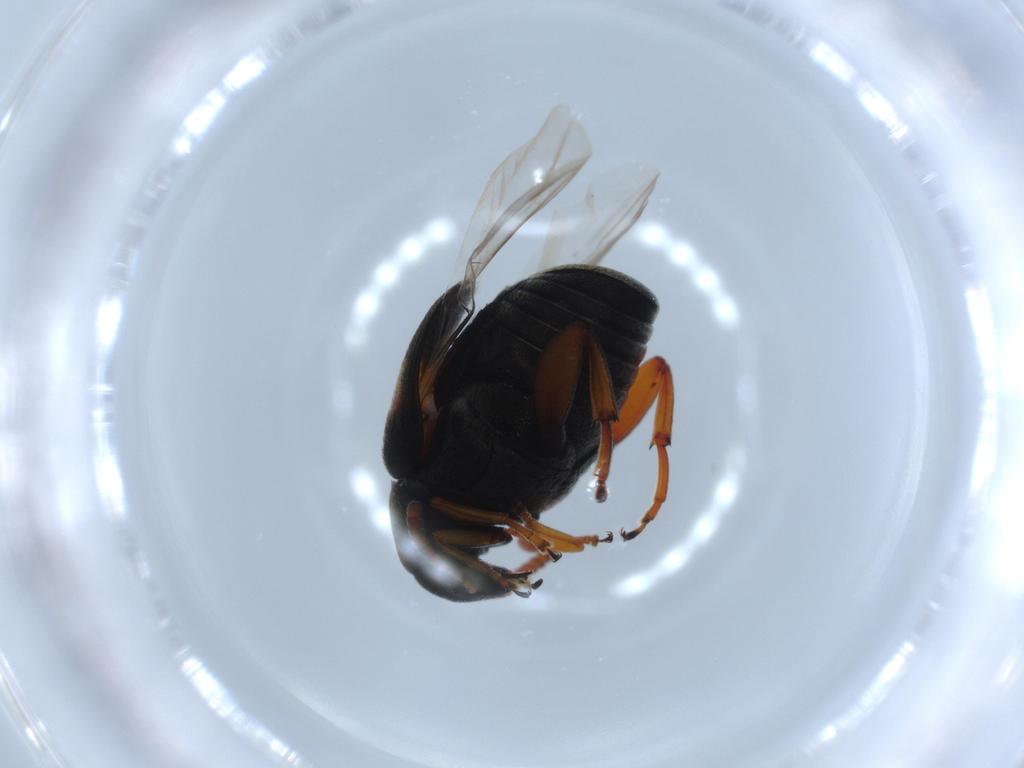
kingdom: Animalia
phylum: Arthropoda
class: Insecta
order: Coleoptera
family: Chrysomelidae
